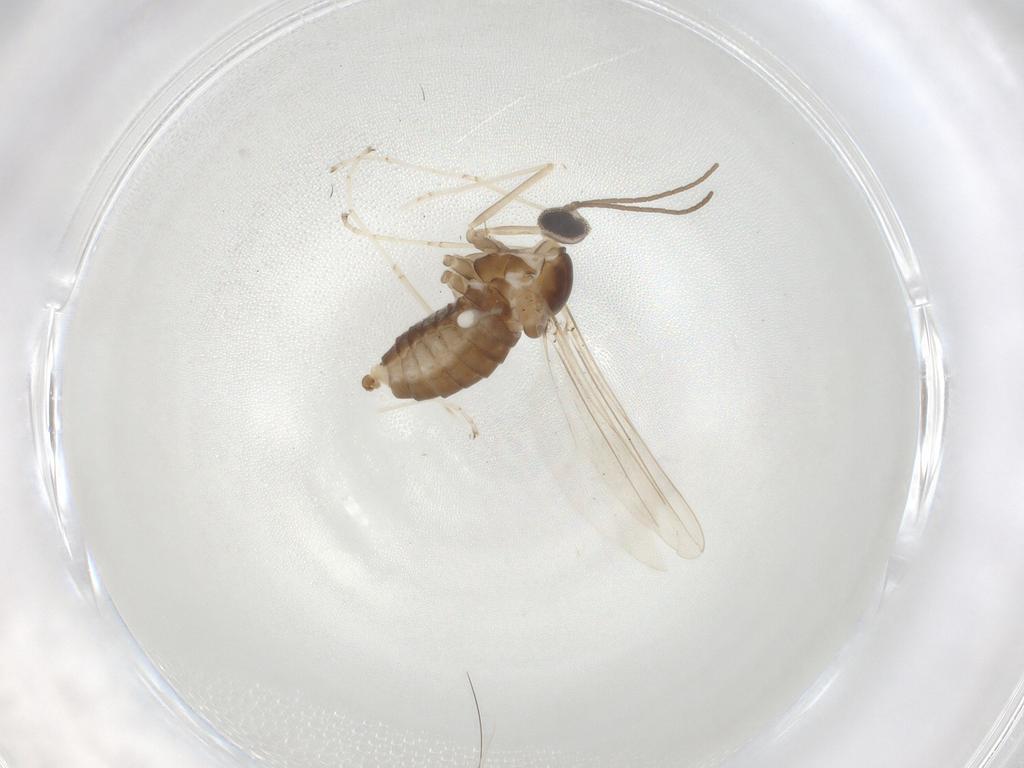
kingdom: Animalia
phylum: Arthropoda
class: Insecta
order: Diptera
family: Cecidomyiidae
